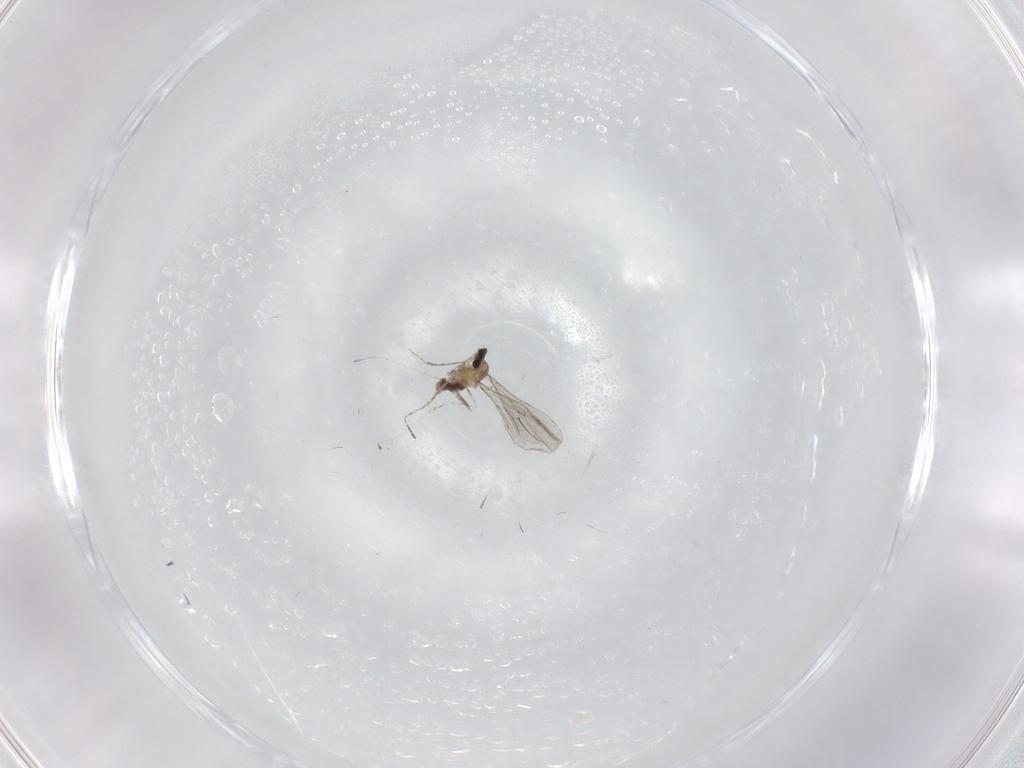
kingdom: Animalia
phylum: Arthropoda
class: Insecta
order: Diptera
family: Cecidomyiidae
